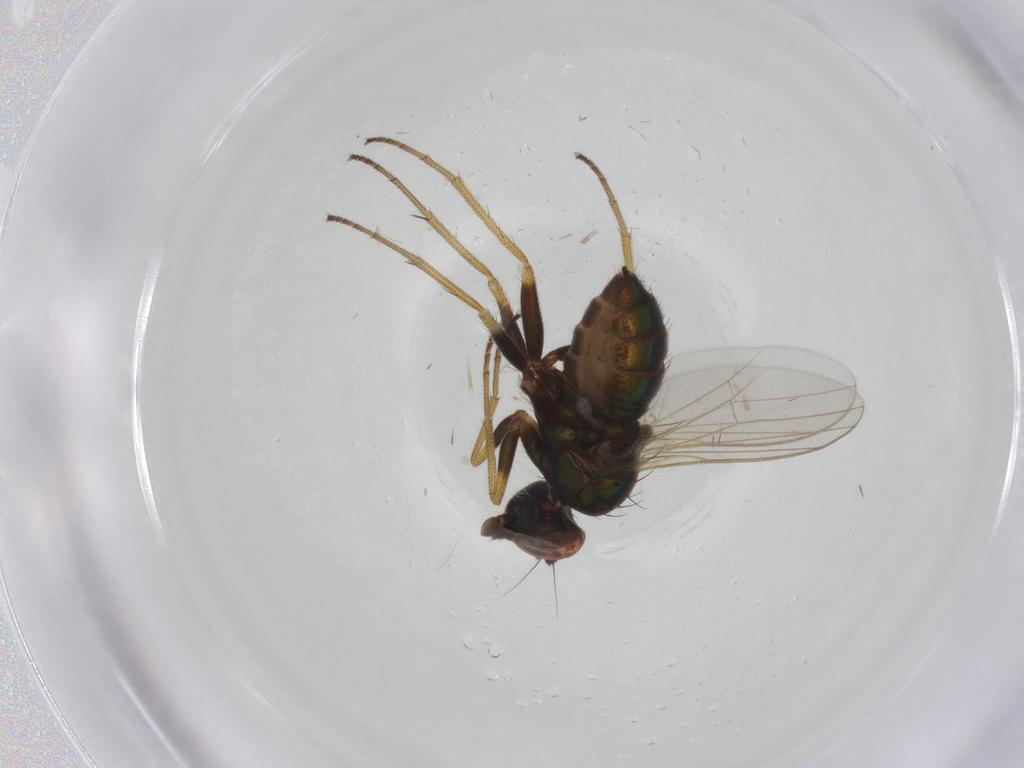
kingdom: Animalia
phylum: Arthropoda
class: Insecta
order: Diptera
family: Dolichopodidae
